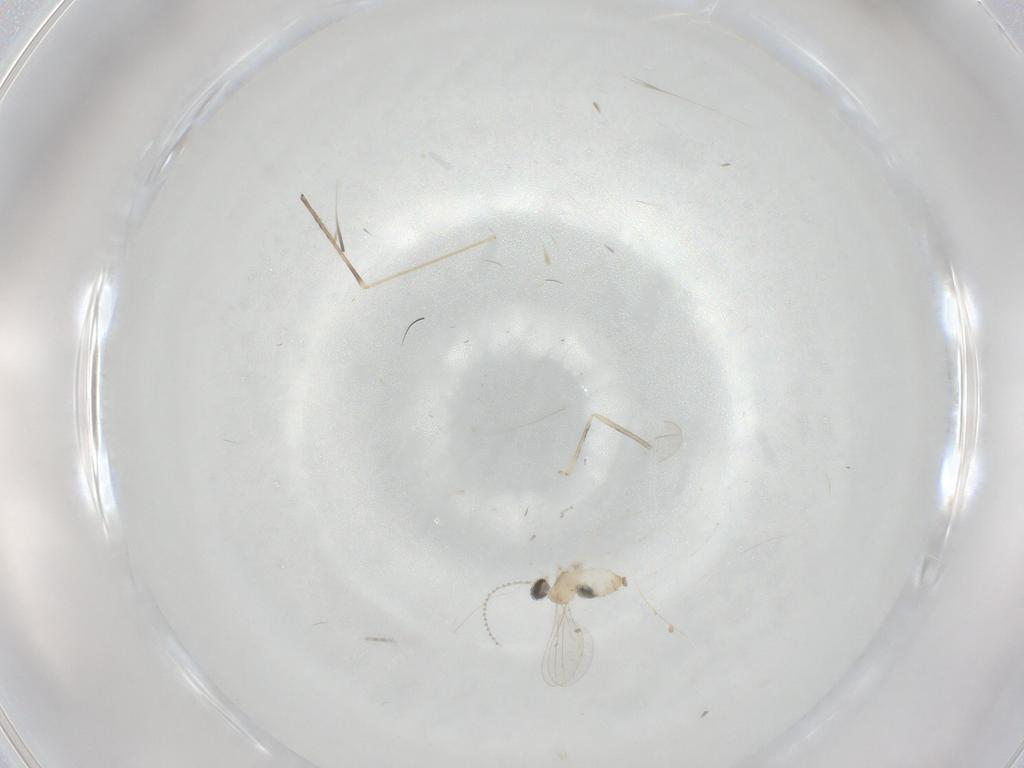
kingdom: Animalia
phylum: Arthropoda
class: Insecta
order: Diptera
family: Limoniidae
